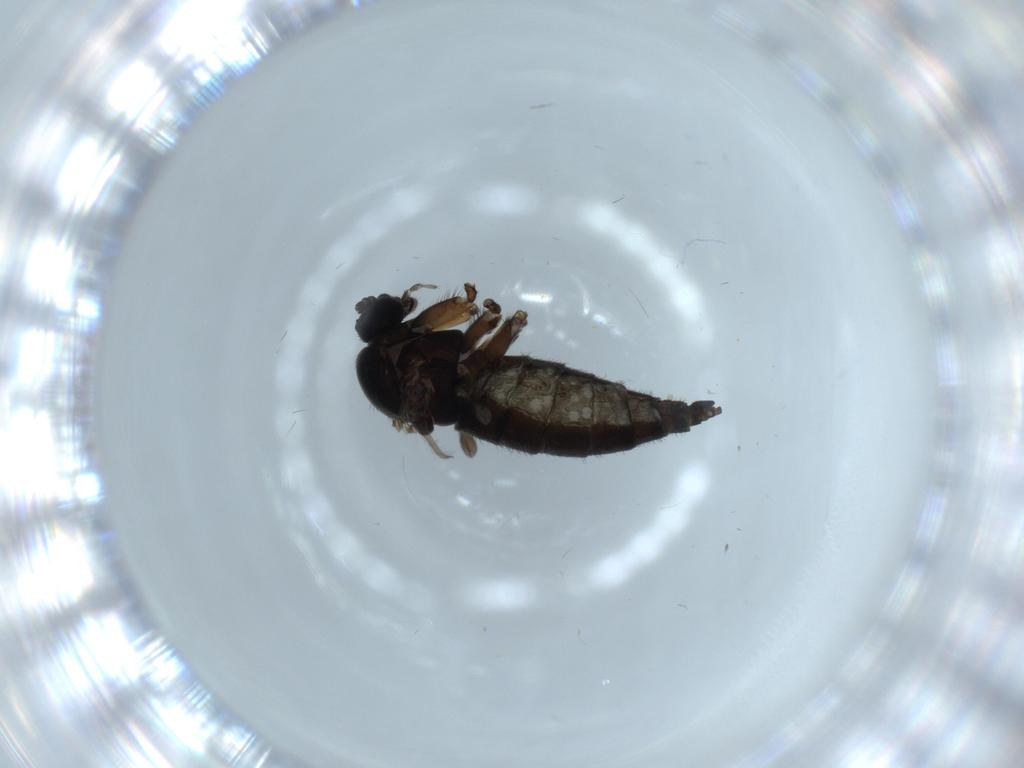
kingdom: Animalia
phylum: Arthropoda
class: Insecta
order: Diptera
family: Sciaridae
